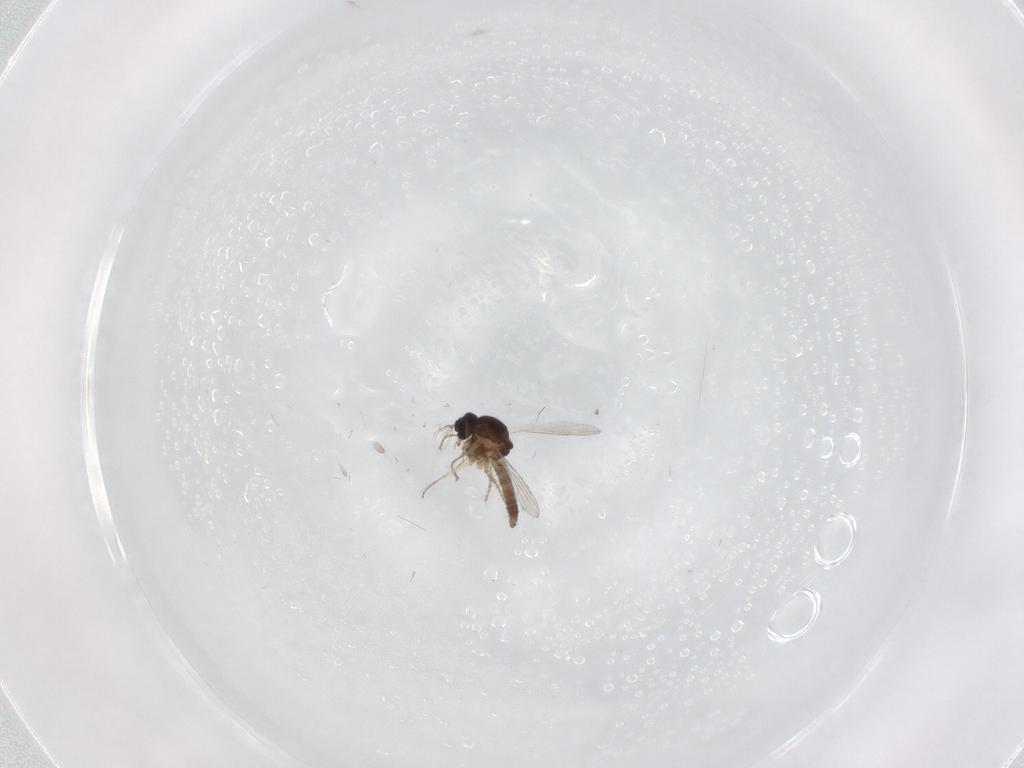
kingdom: Animalia
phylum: Arthropoda
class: Insecta
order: Diptera
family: Ceratopogonidae
